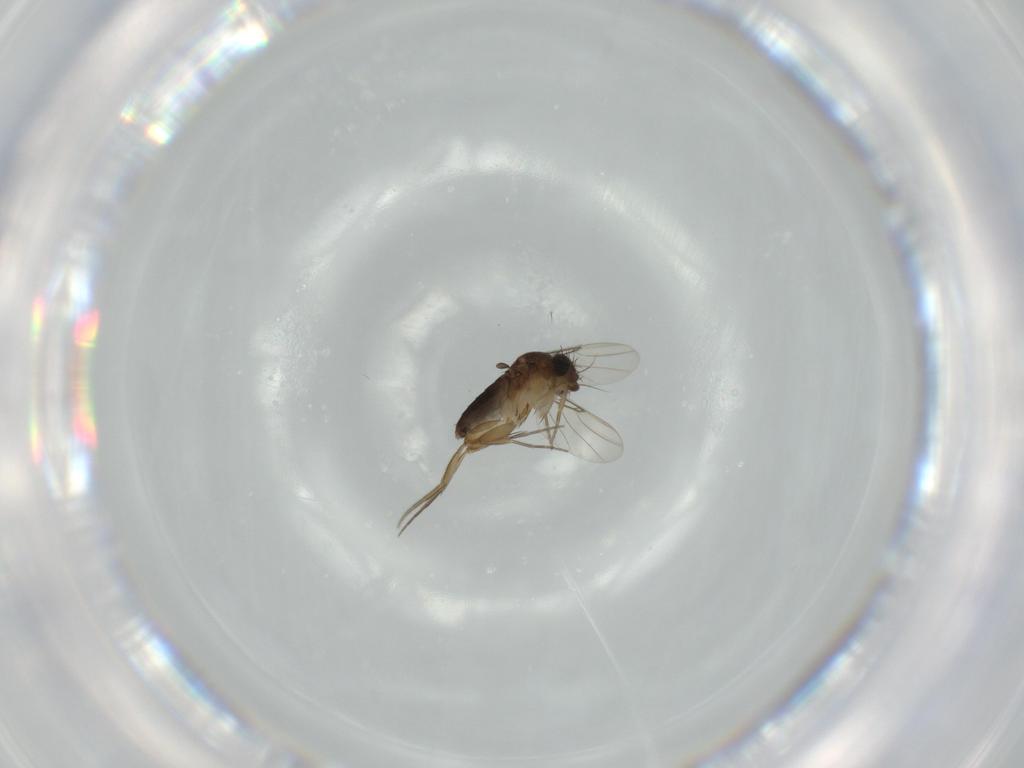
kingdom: Animalia
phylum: Arthropoda
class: Insecta
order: Diptera
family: Phoridae
